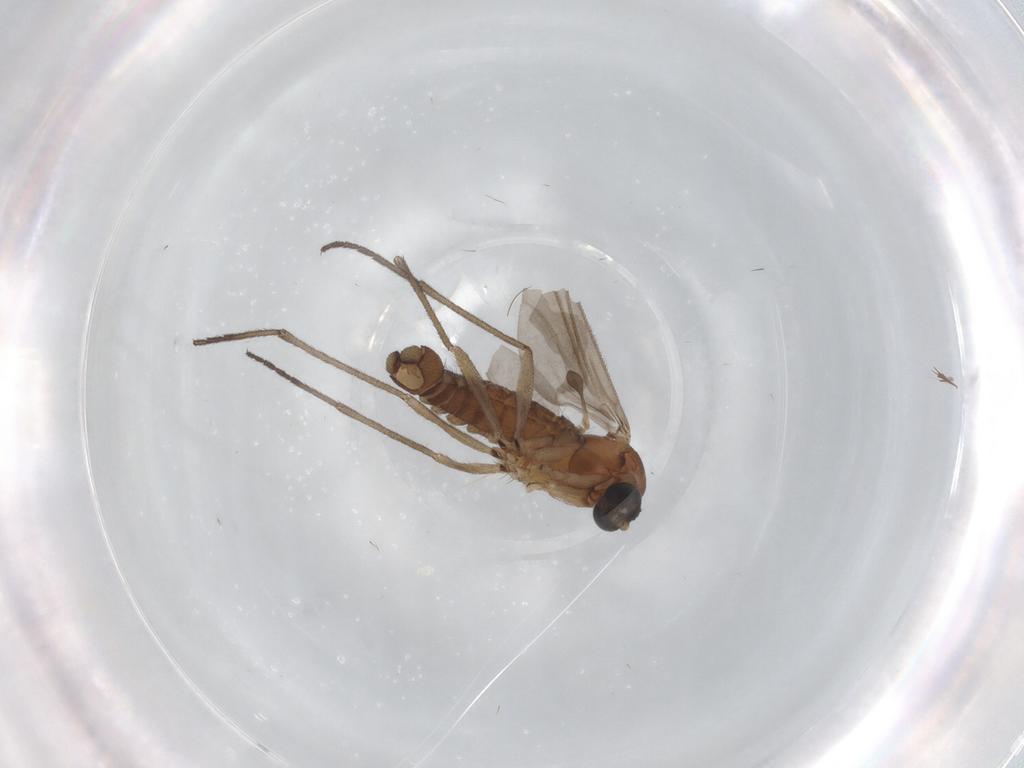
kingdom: Animalia
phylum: Arthropoda
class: Insecta
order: Diptera
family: Sciaridae
